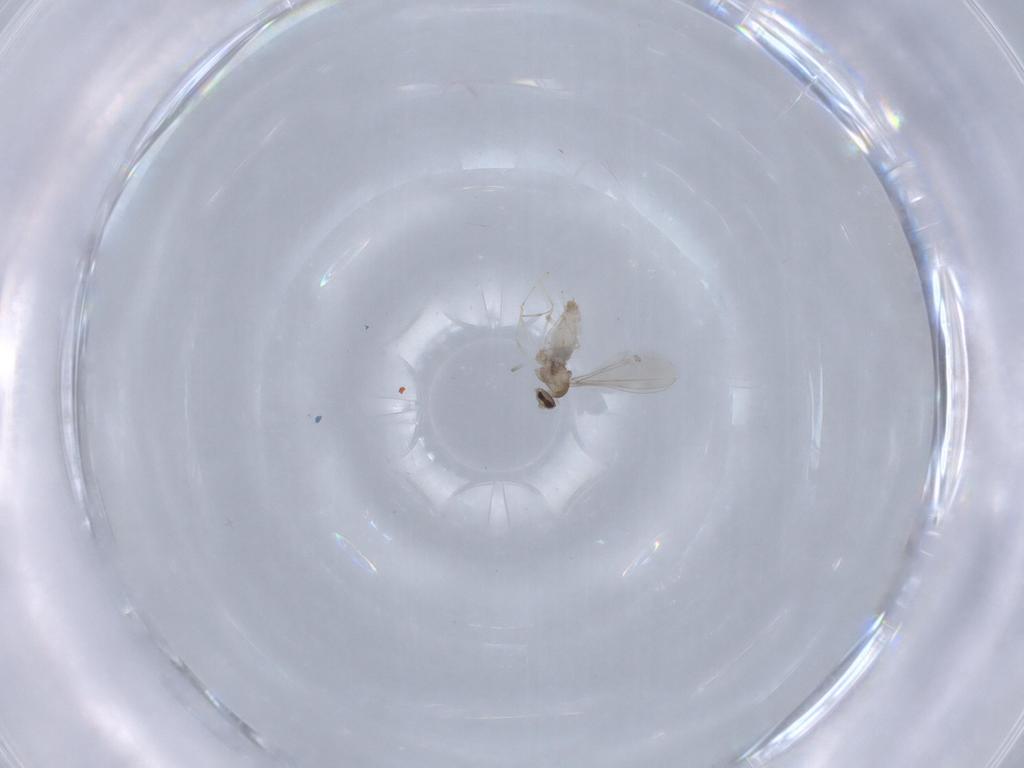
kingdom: Animalia
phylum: Arthropoda
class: Insecta
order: Diptera
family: Cecidomyiidae
